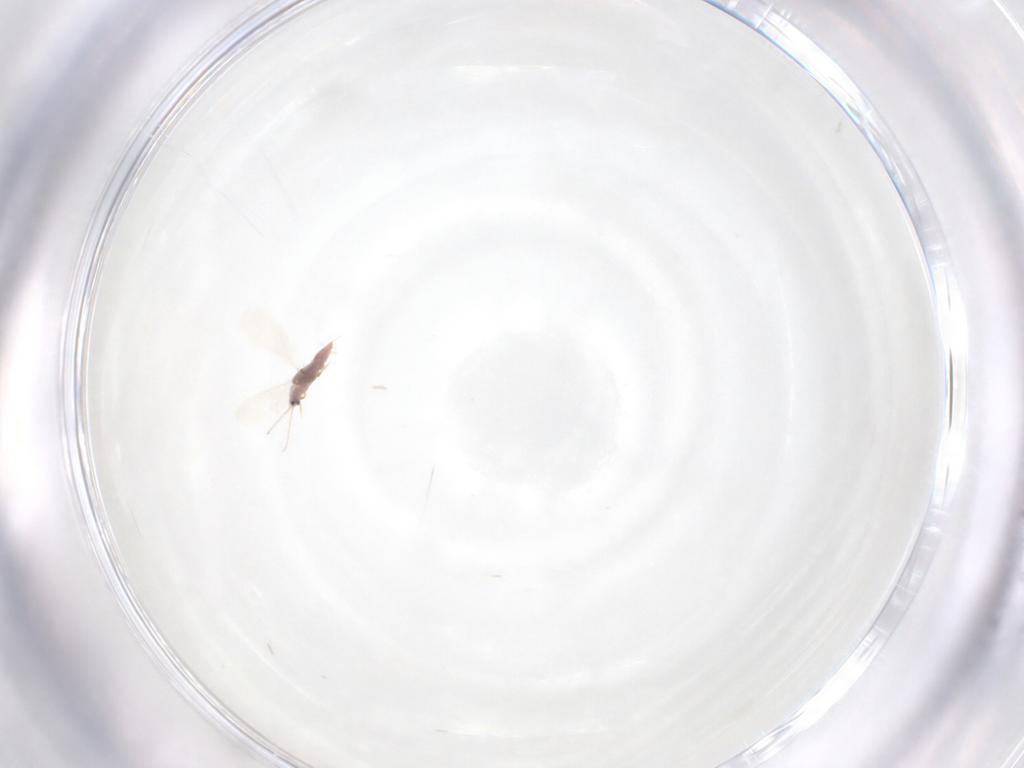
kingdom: Animalia
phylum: Arthropoda
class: Insecta
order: Hemiptera
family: Diaspididae
